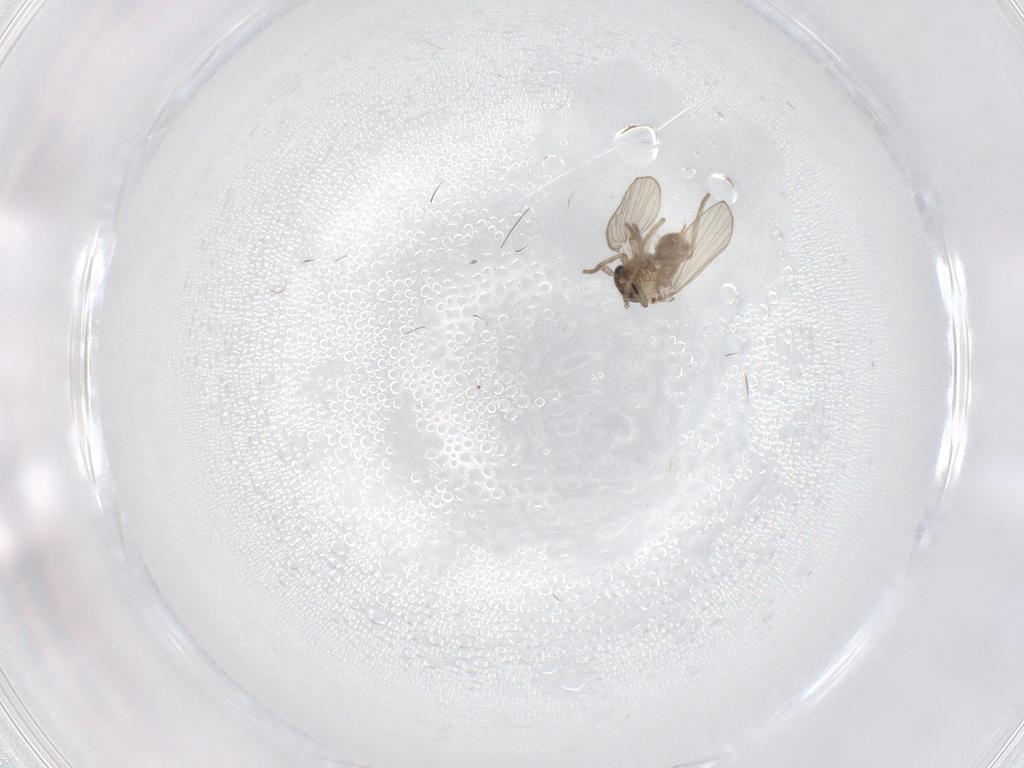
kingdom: Animalia
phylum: Arthropoda
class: Insecta
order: Diptera
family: Psychodidae
